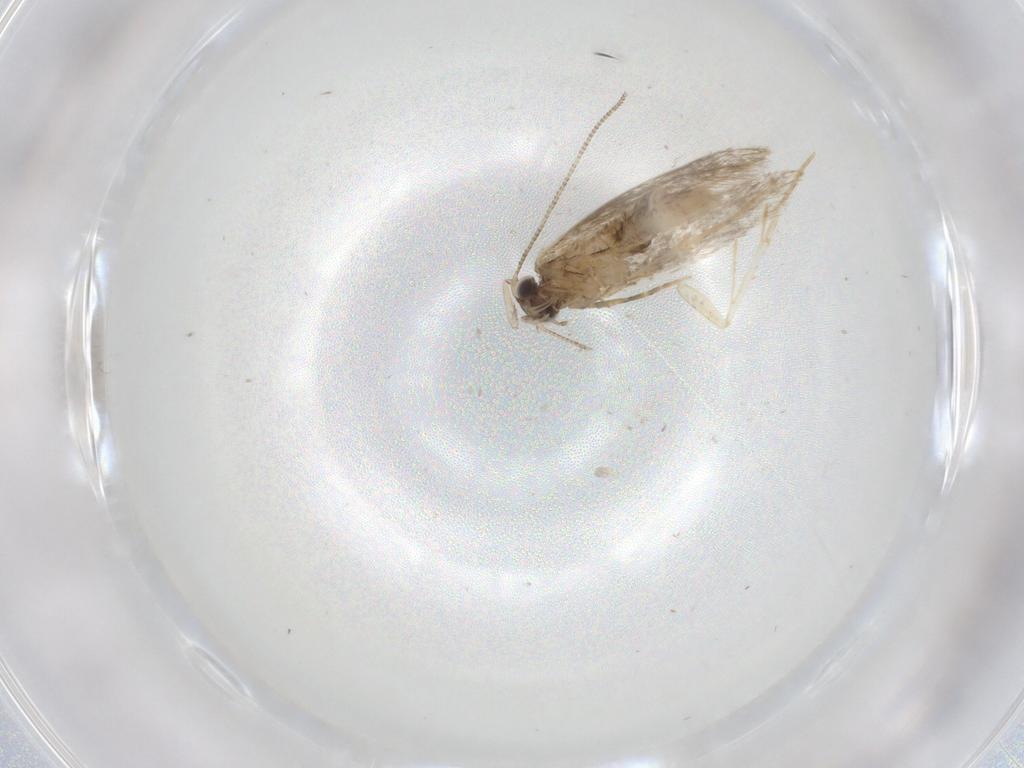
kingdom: Animalia
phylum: Arthropoda
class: Insecta
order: Lepidoptera
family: Tineidae
